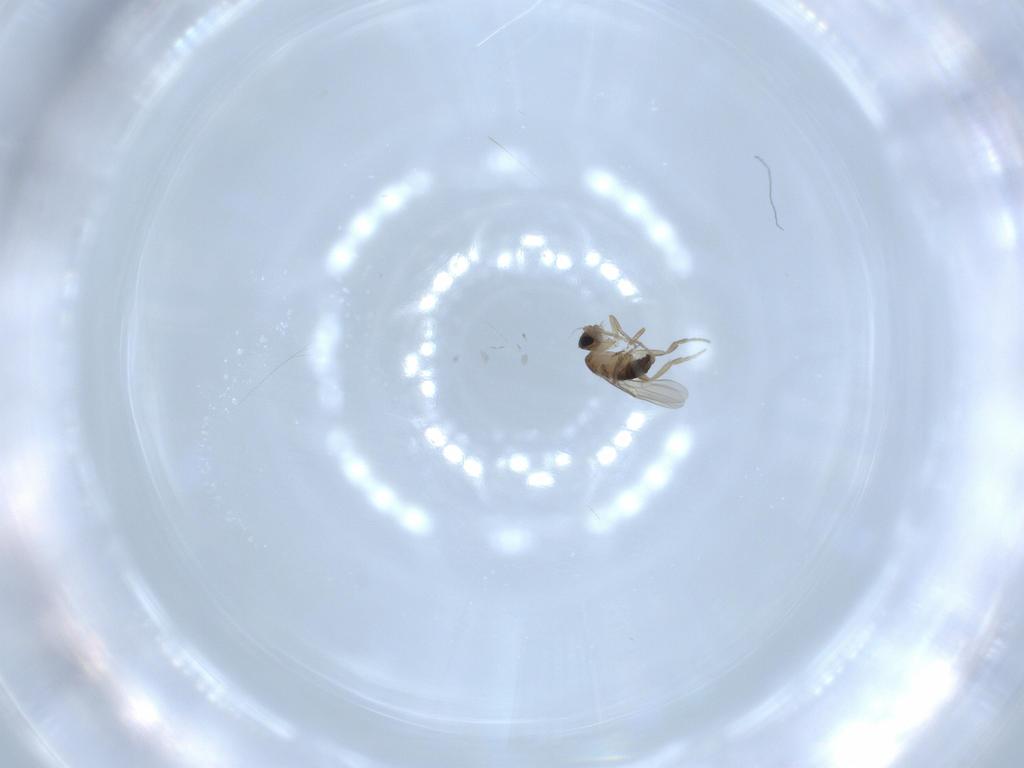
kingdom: Animalia
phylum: Arthropoda
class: Insecta
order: Diptera
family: Phoridae
